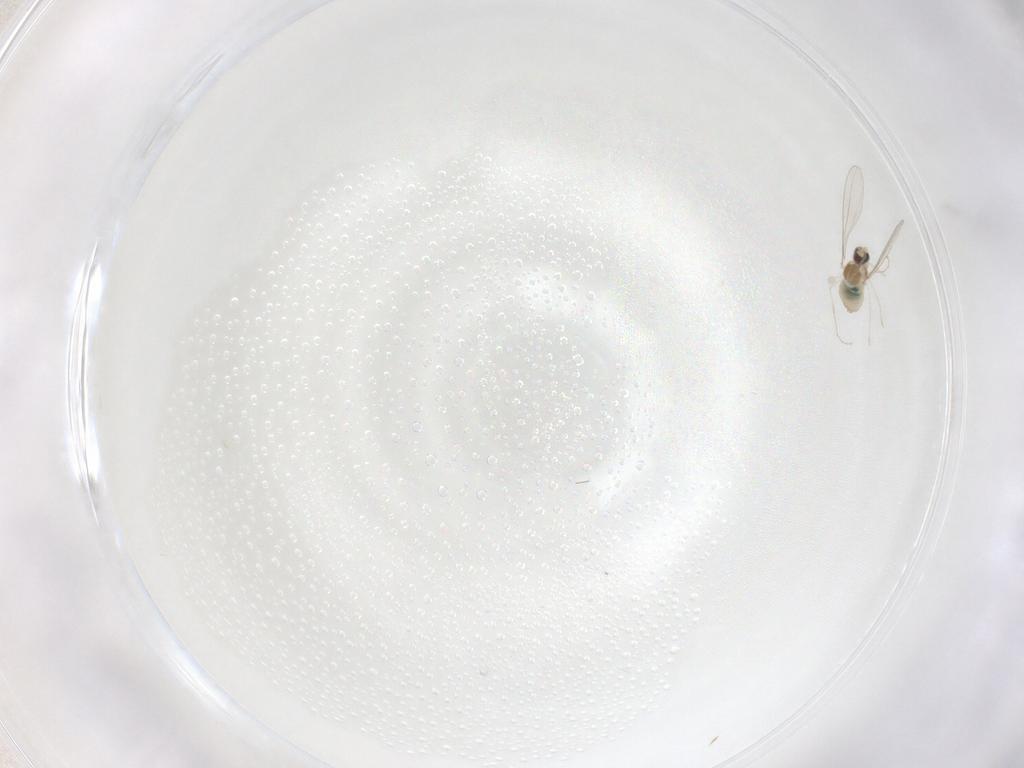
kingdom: Animalia
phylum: Arthropoda
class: Insecta
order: Diptera
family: Cecidomyiidae
